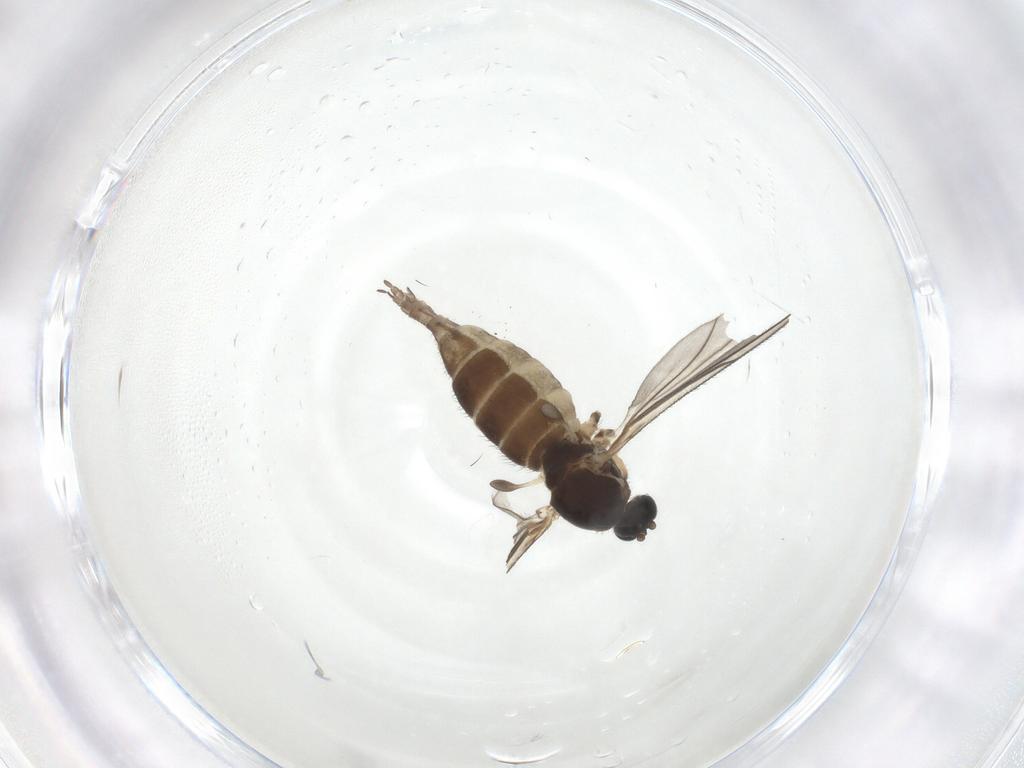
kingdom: Animalia
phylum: Arthropoda
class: Insecta
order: Diptera
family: Sciaridae
